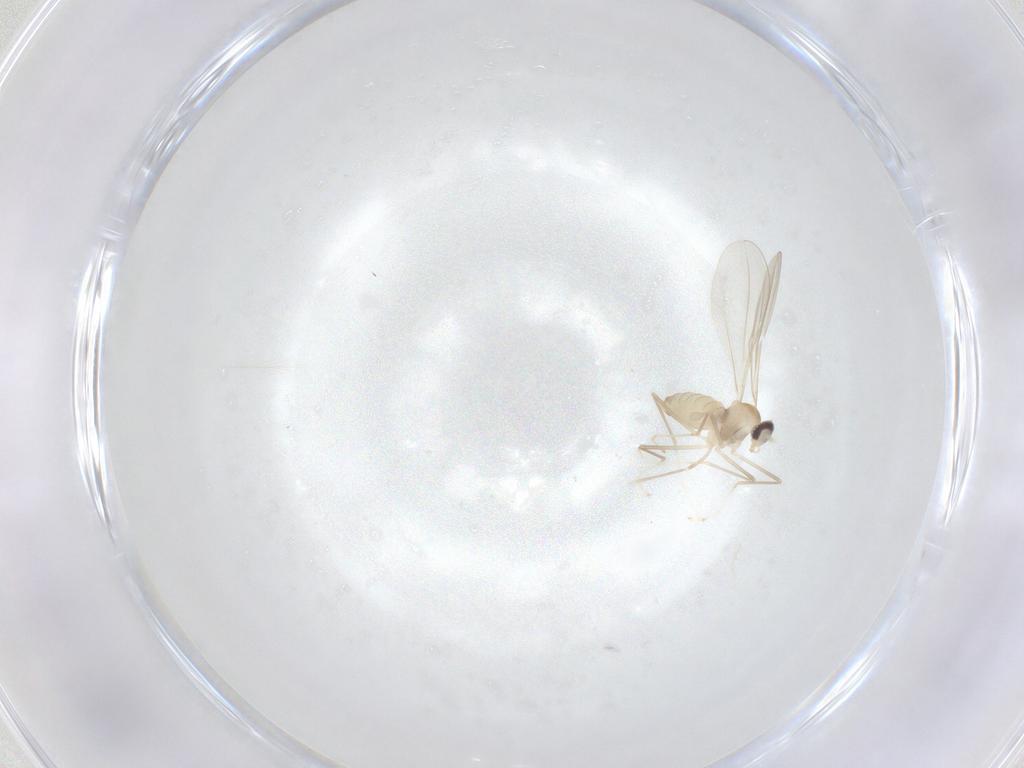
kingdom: Animalia
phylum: Arthropoda
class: Insecta
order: Diptera
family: Cecidomyiidae
